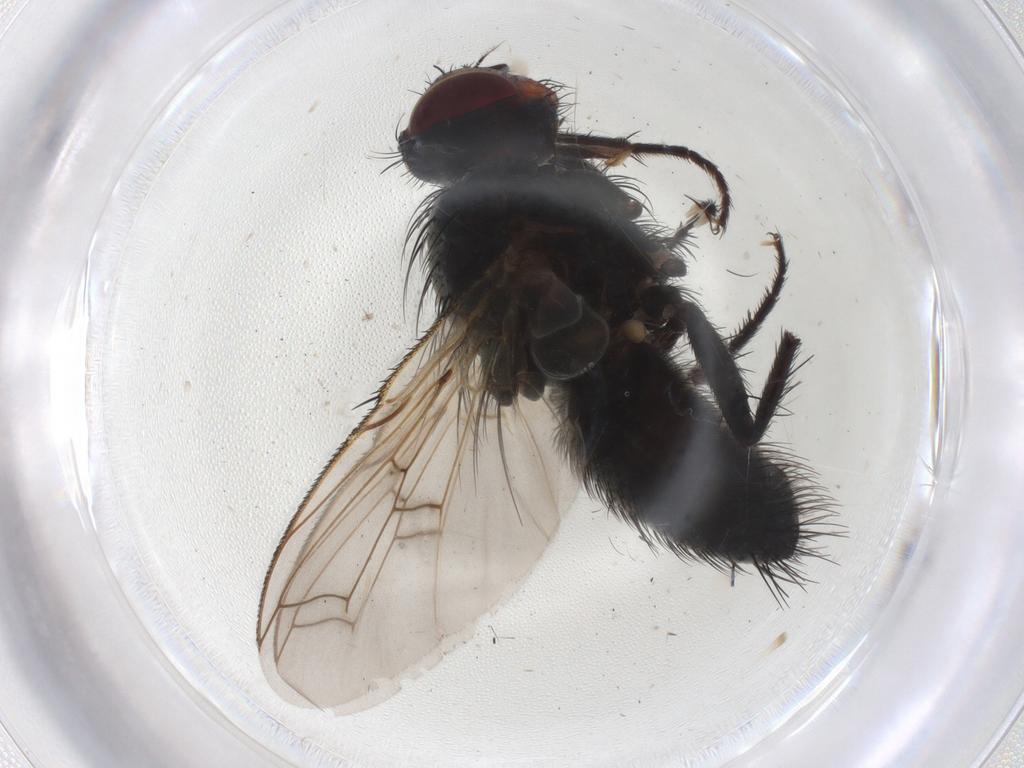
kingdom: Animalia
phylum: Arthropoda
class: Insecta
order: Diptera
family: Tachinidae
